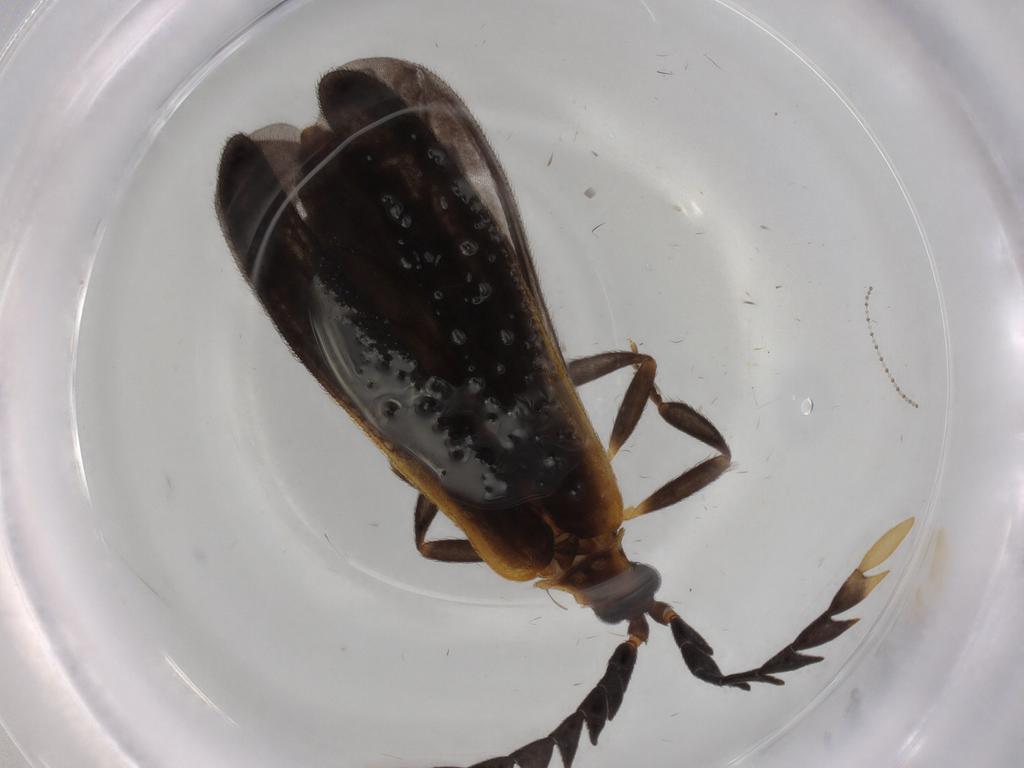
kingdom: Animalia
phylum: Arthropoda
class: Insecta
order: Coleoptera
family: Lycidae
